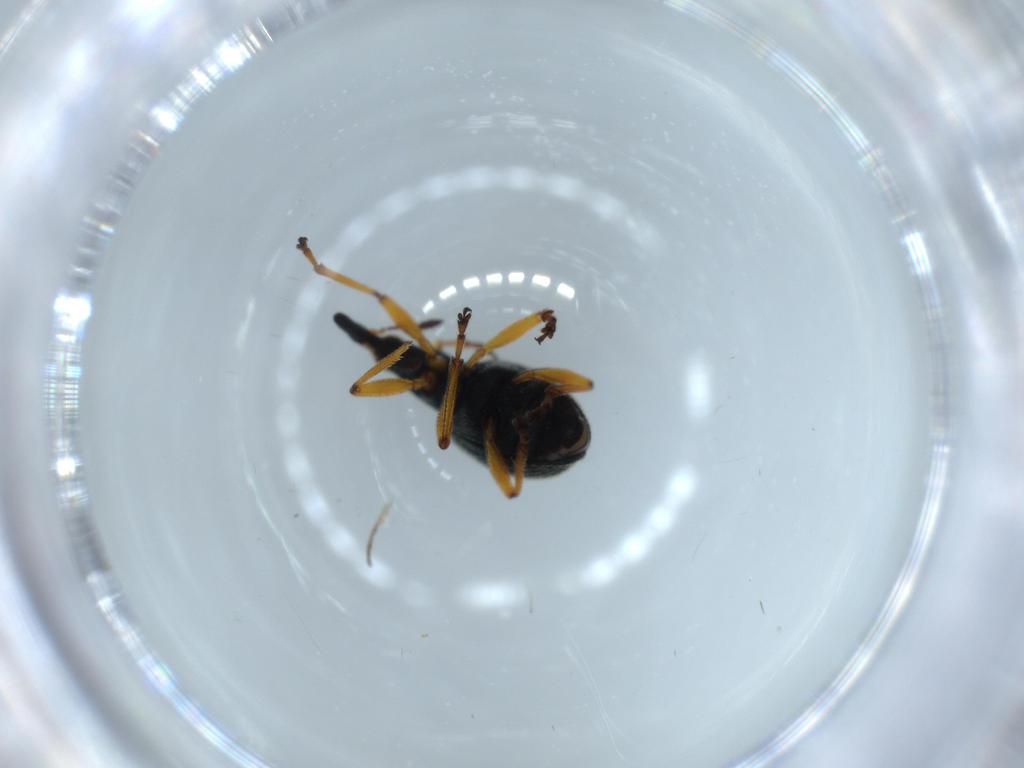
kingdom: Animalia
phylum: Arthropoda
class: Insecta
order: Coleoptera
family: Brentidae
